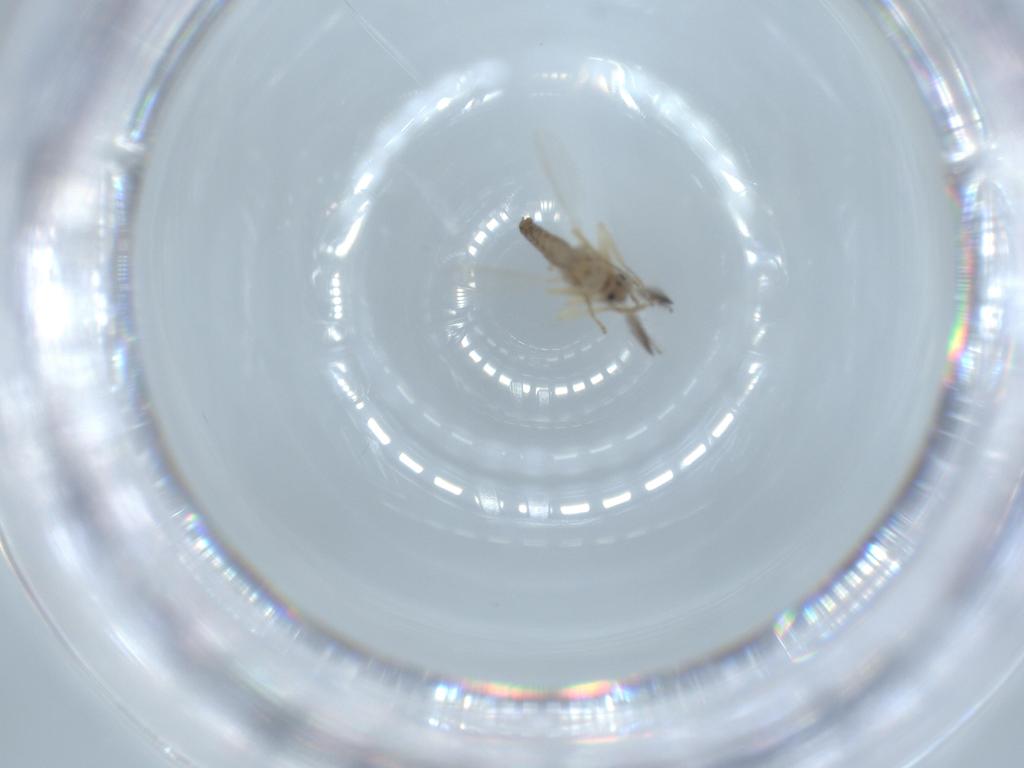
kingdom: Animalia
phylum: Arthropoda
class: Insecta
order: Diptera
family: Ceratopogonidae
